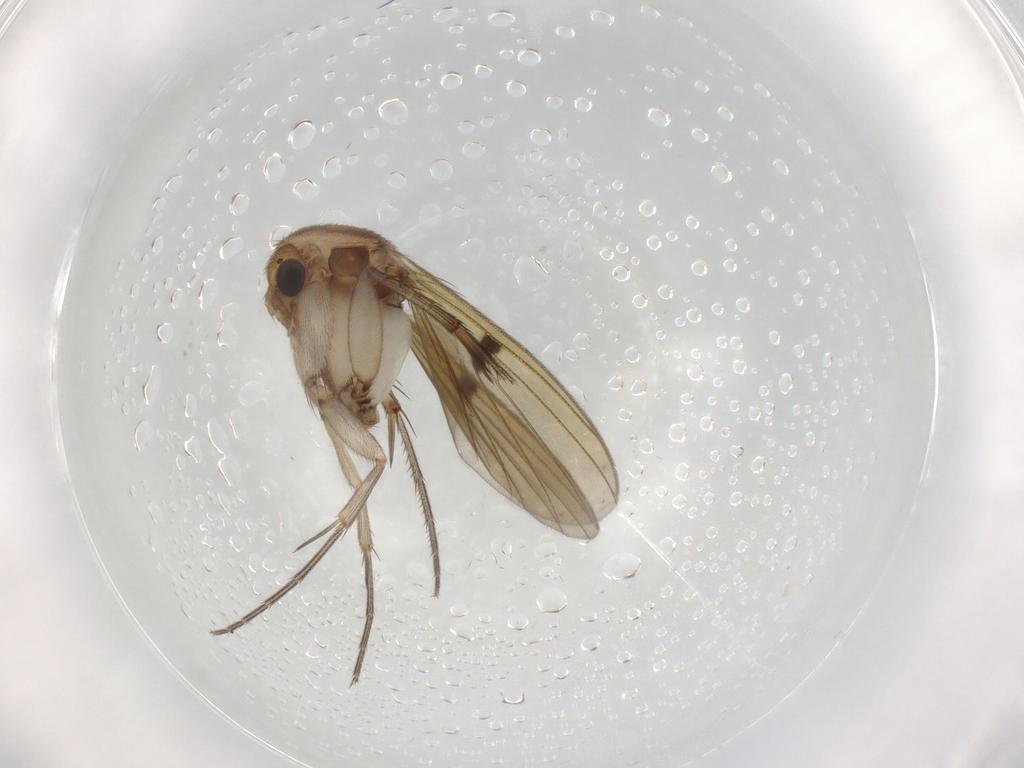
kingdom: Animalia
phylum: Arthropoda
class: Insecta
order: Diptera
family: Mycetophilidae
